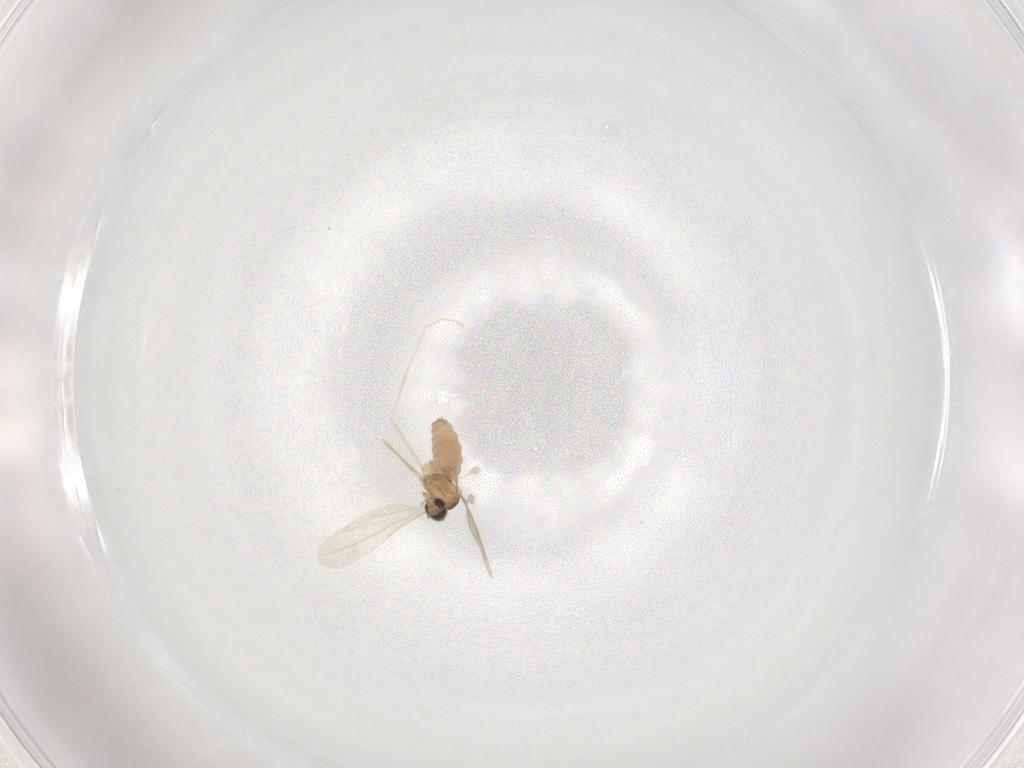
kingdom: Animalia
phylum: Arthropoda
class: Insecta
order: Diptera
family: Cecidomyiidae
